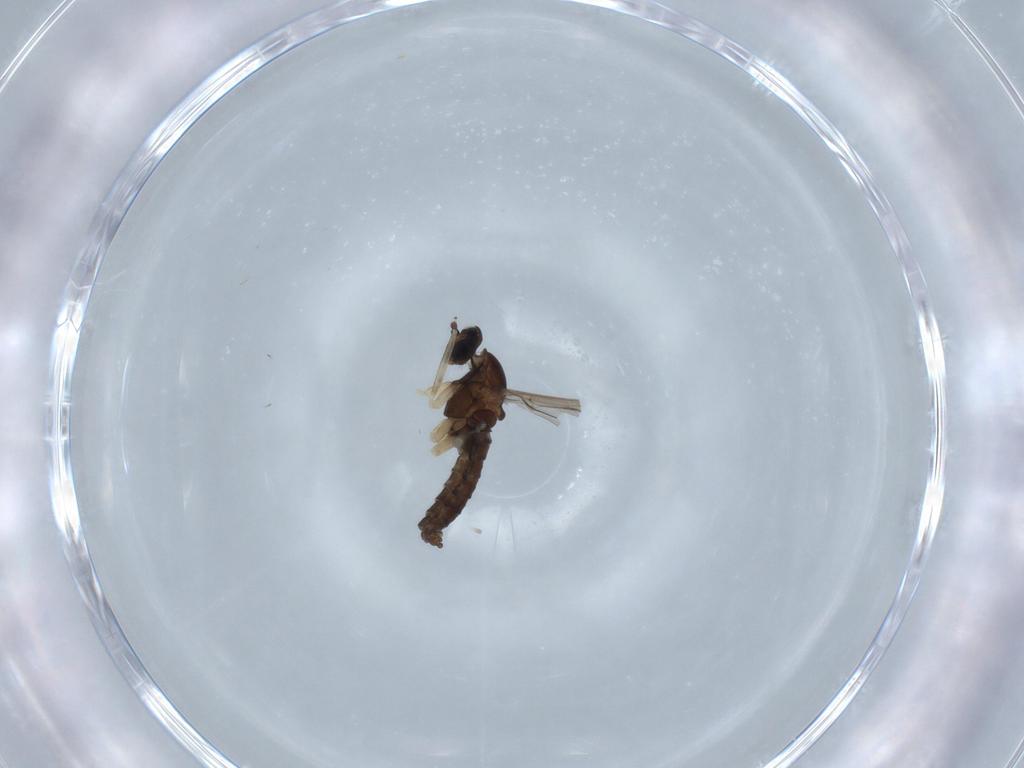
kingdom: Animalia
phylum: Arthropoda
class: Insecta
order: Diptera
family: Cecidomyiidae
